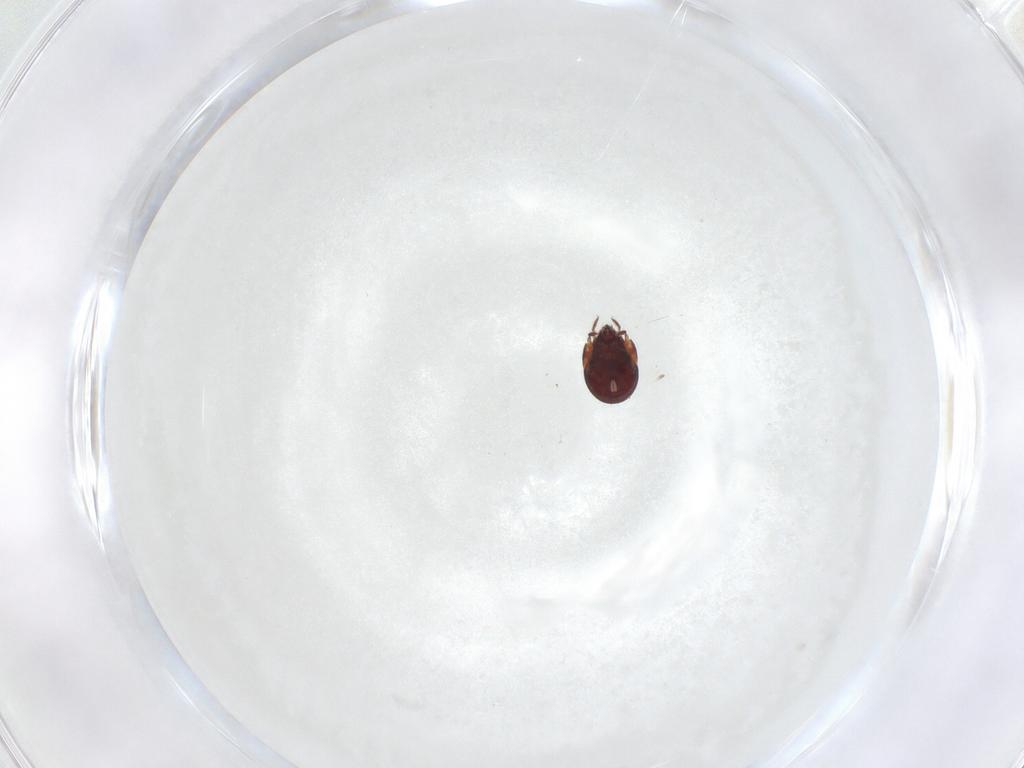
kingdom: Animalia
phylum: Arthropoda
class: Arachnida
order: Sarcoptiformes
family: Humerobatidae
